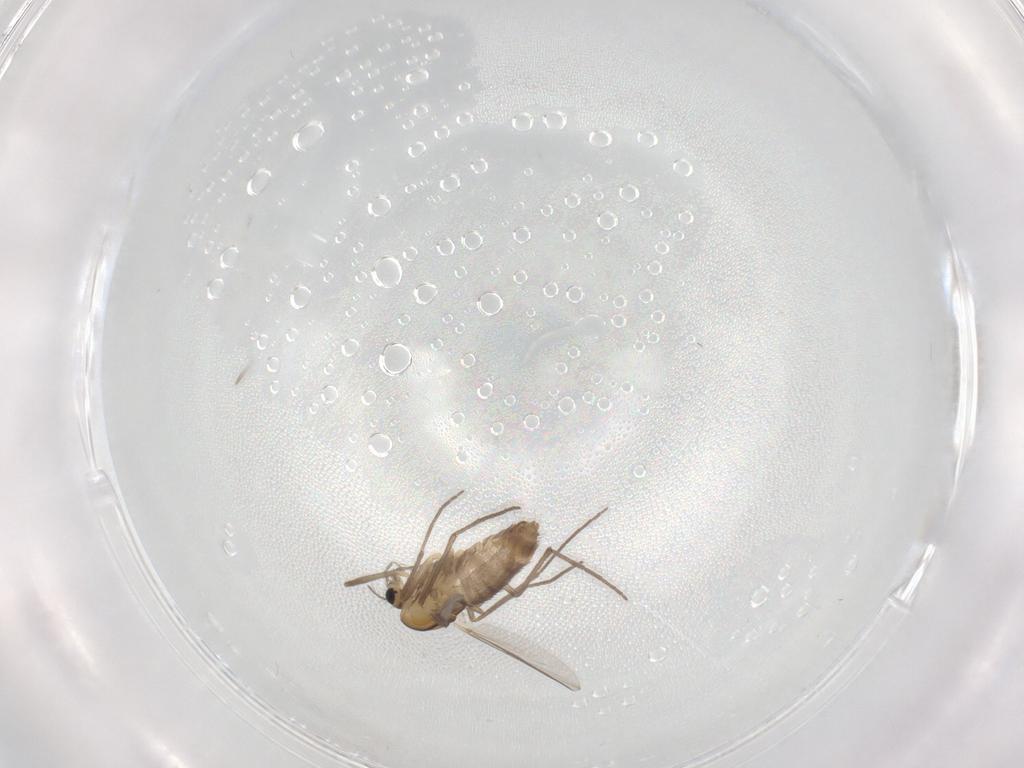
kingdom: Animalia
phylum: Arthropoda
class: Insecta
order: Diptera
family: Chironomidae
